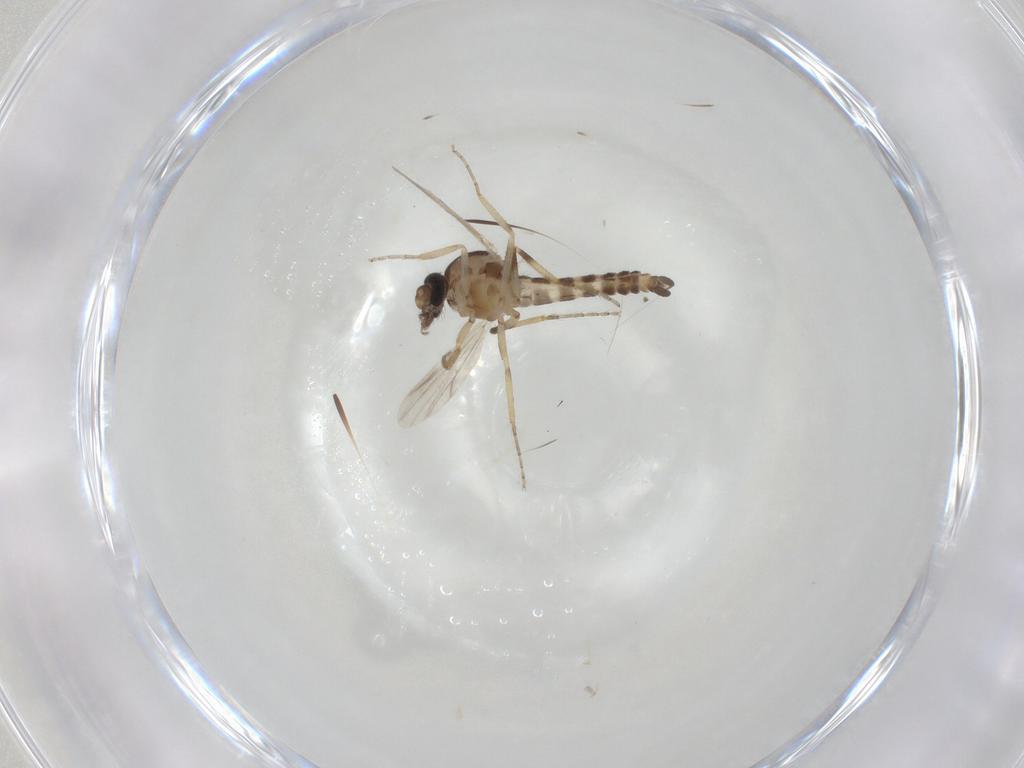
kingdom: Animalia
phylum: Arthropoda
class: Insecta
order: Diptera
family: Ceratopogonidae
